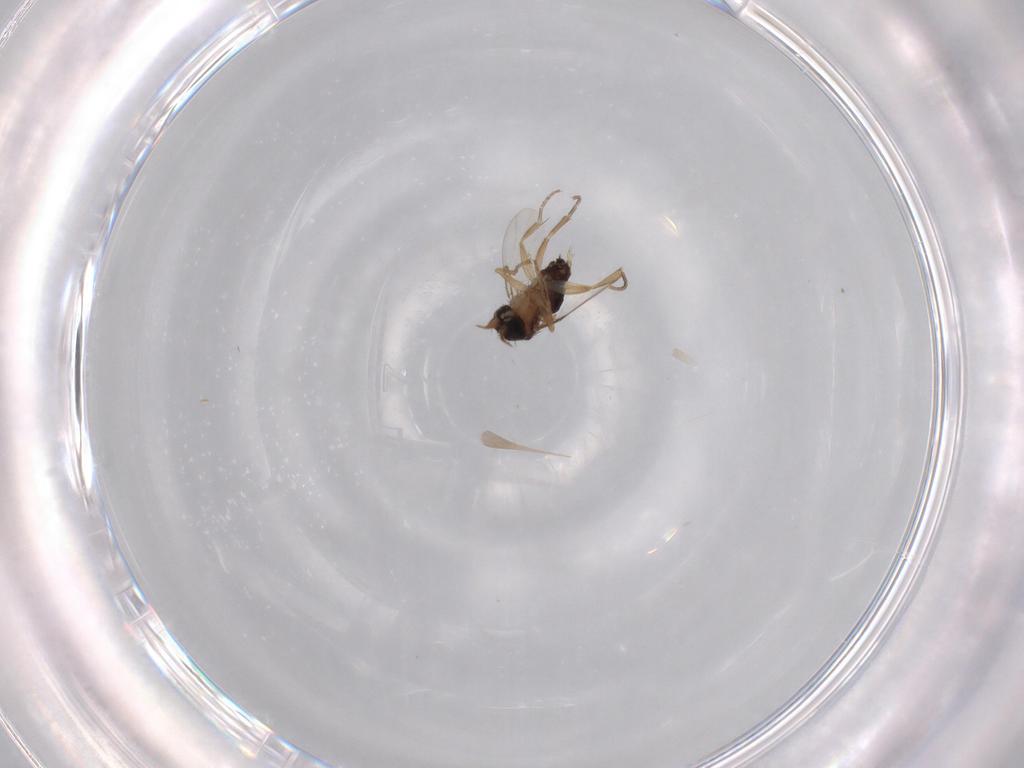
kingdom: Animalia
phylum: Arthropoda
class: Insecta
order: Diptera
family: Phoridae
